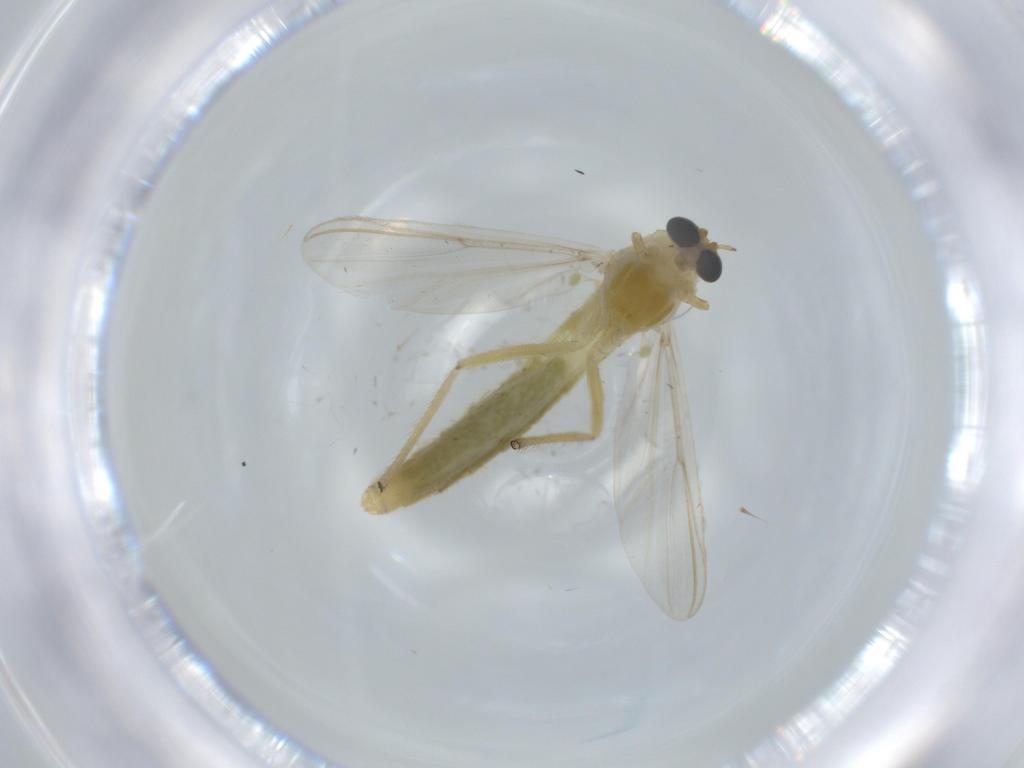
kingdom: Animalia
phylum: Arthropoda
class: Insecta
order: Diptera
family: Chironomidae
